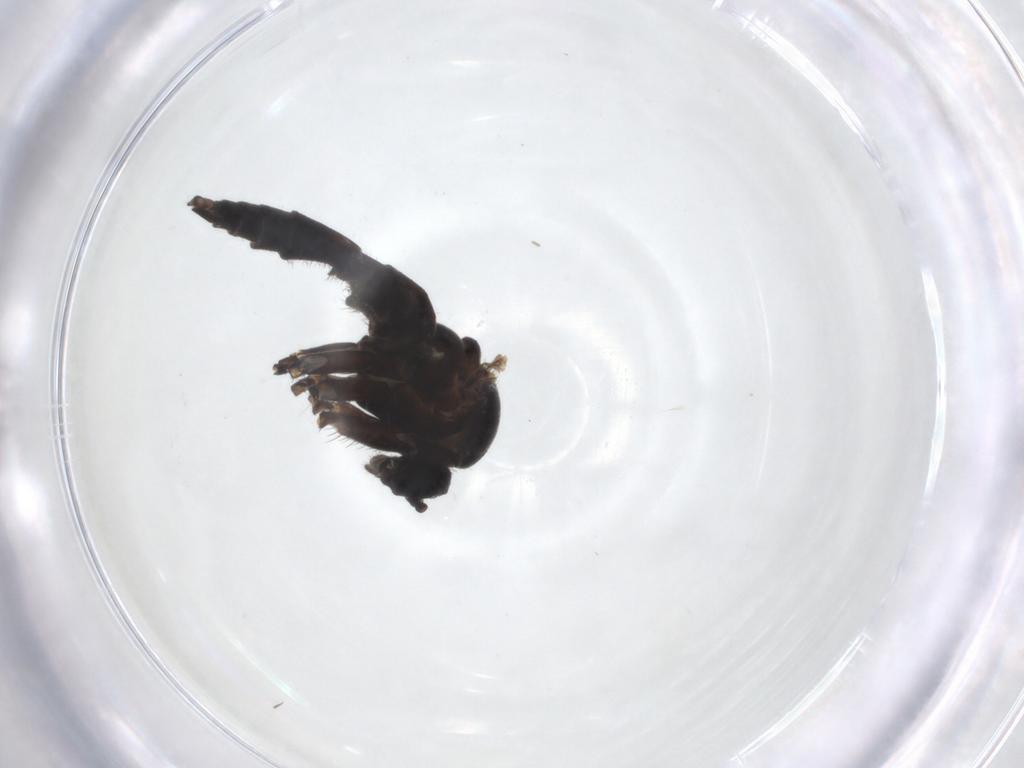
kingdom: Animalia
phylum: Arthropoda
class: Insecta
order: Diptera
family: Sciaridae
